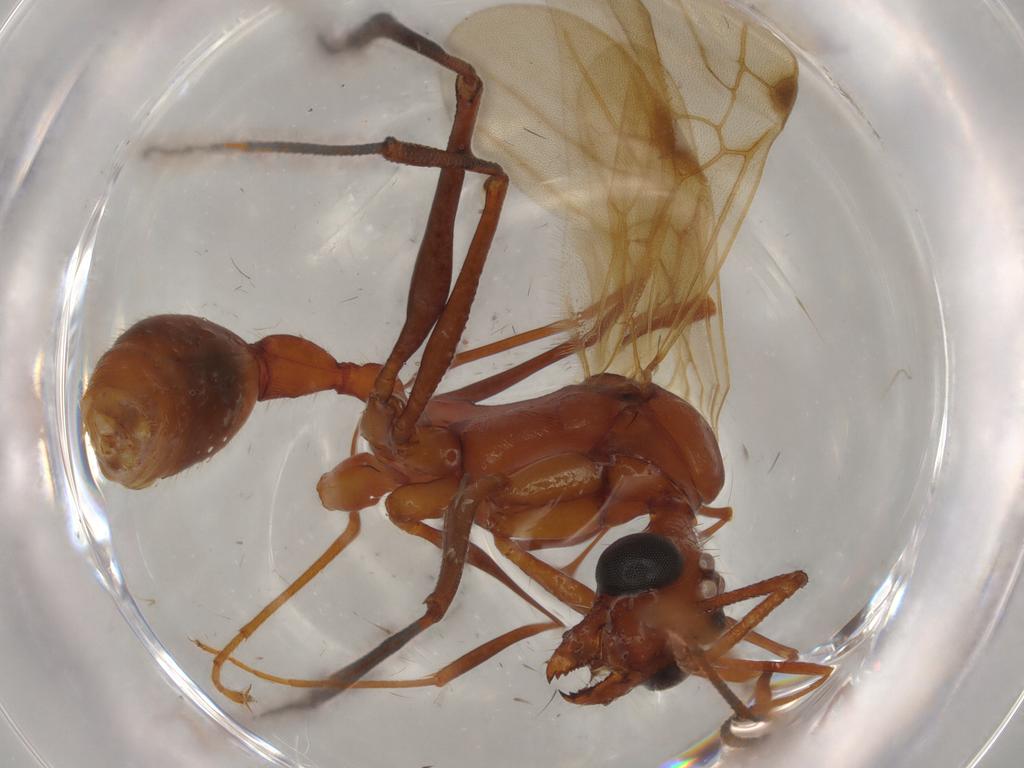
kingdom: Animalia
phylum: Arthropoda
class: Insecta
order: Hymenoptera
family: Formicidae
